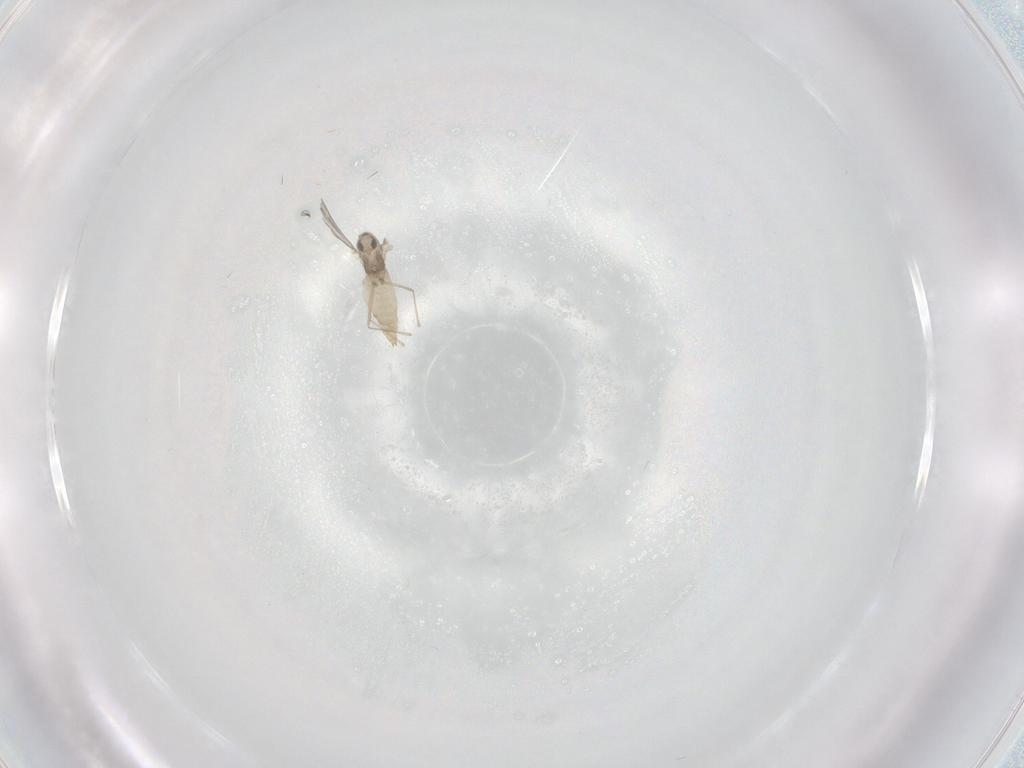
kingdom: Animalia
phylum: Arthropoda
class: Insecta
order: Diptera
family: Cecidomyiidae
